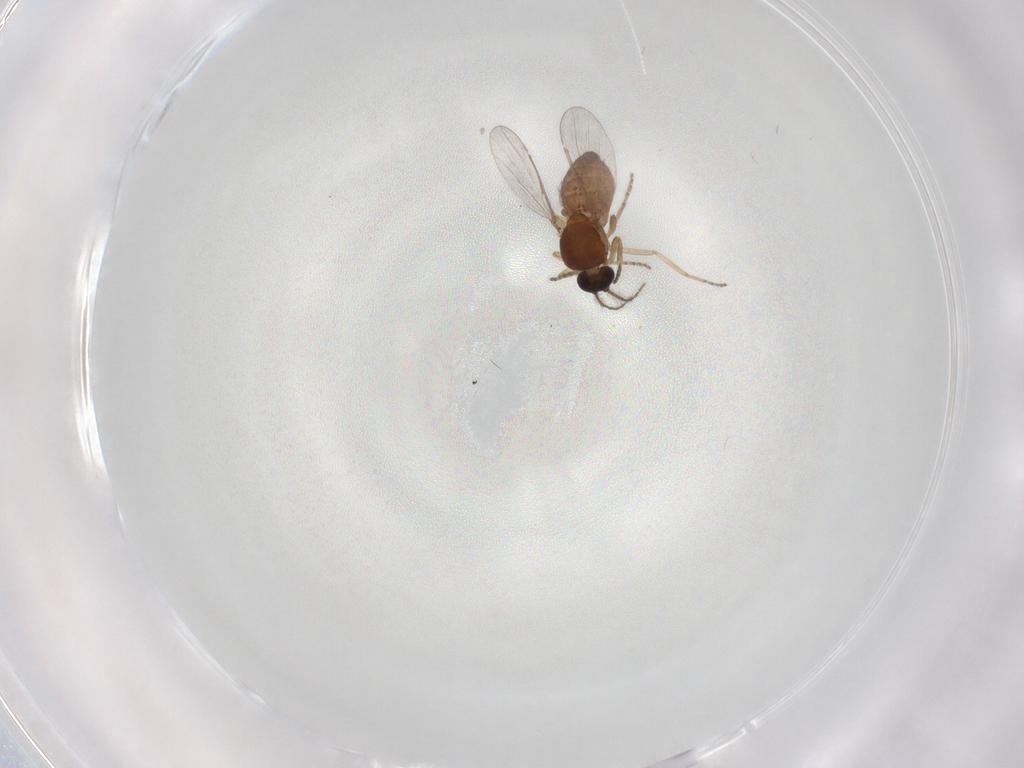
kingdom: Animalia
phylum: Arthropoda
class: Insecta
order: Diptera
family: Ceratopogonidae
